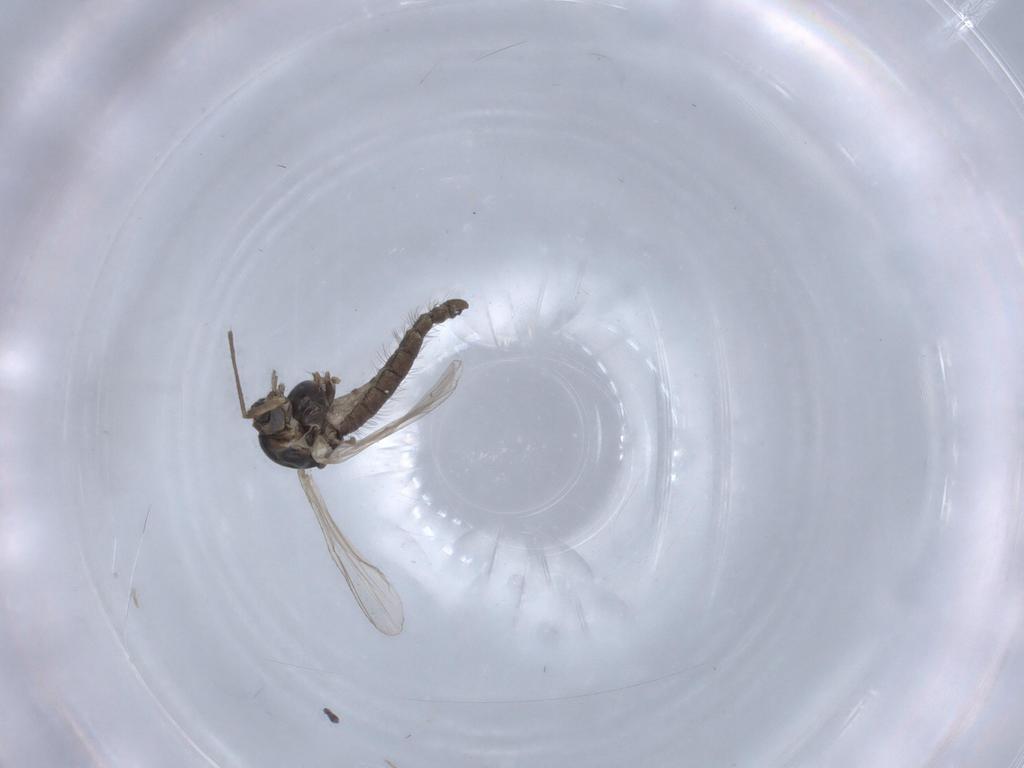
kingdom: Animalia
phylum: Arthropoda
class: Insecta
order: Diptera
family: Chironomidae
